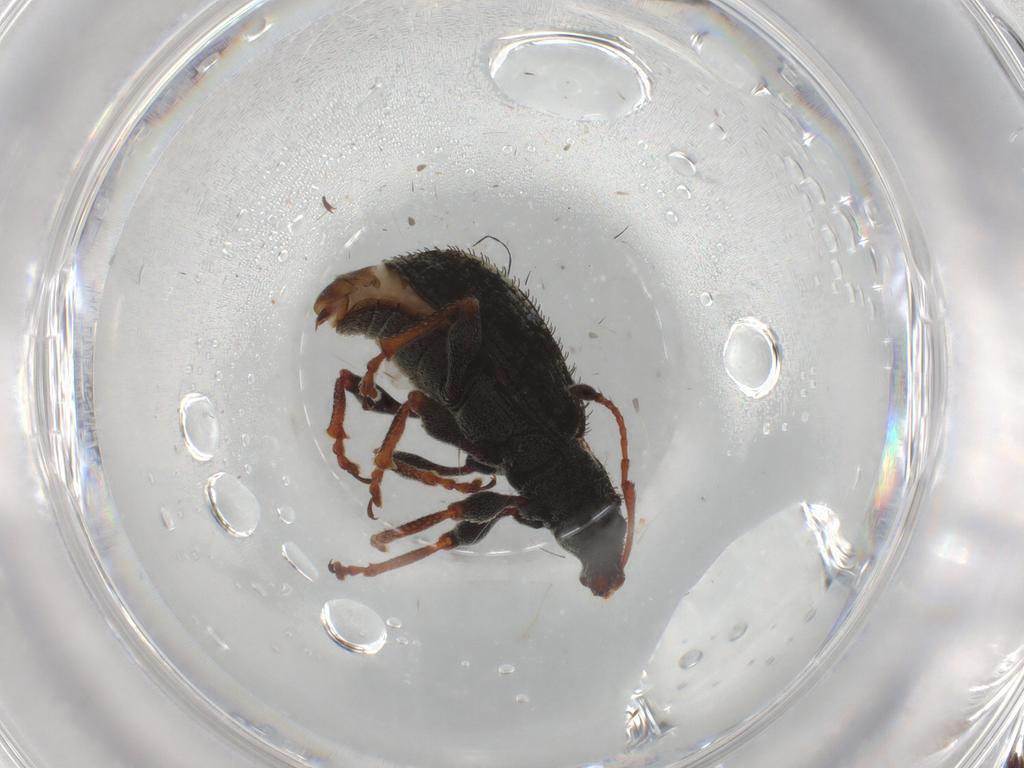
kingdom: Animalia
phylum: Arthropoda
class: Insecta
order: Coleoptera
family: Curculionidae
